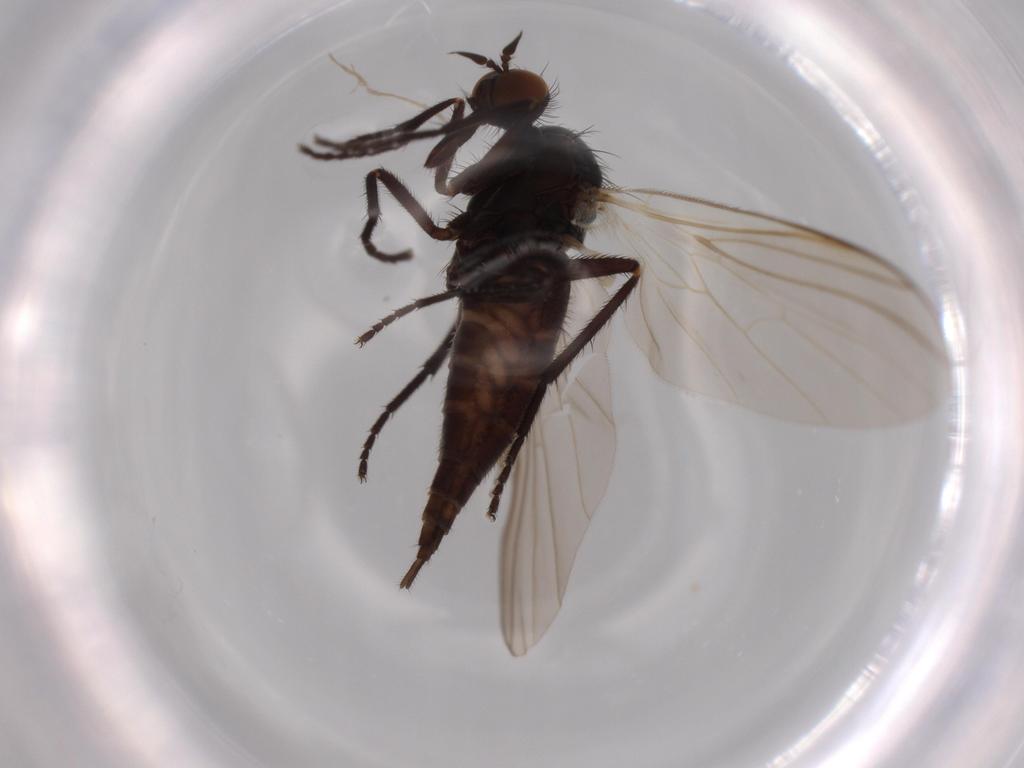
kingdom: Animalia
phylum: Arthropoda
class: Insecta
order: Diptera
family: Empididae
